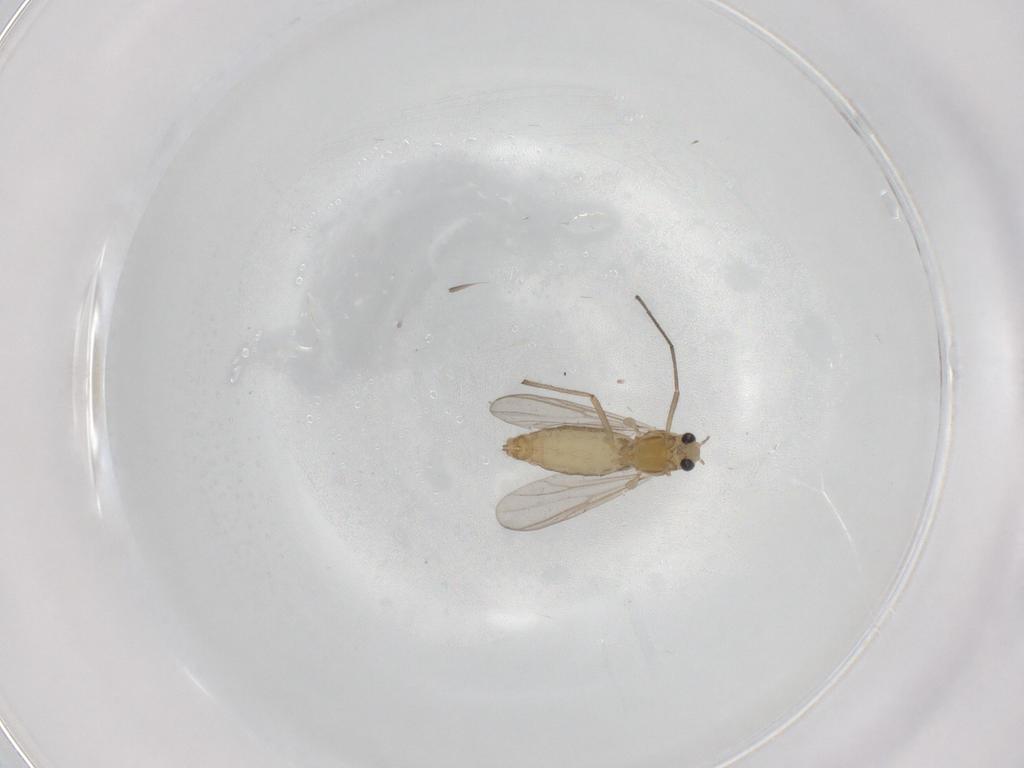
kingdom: Animalia
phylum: Arthropoda
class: Insecta
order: Diptera
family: Chironomidae
